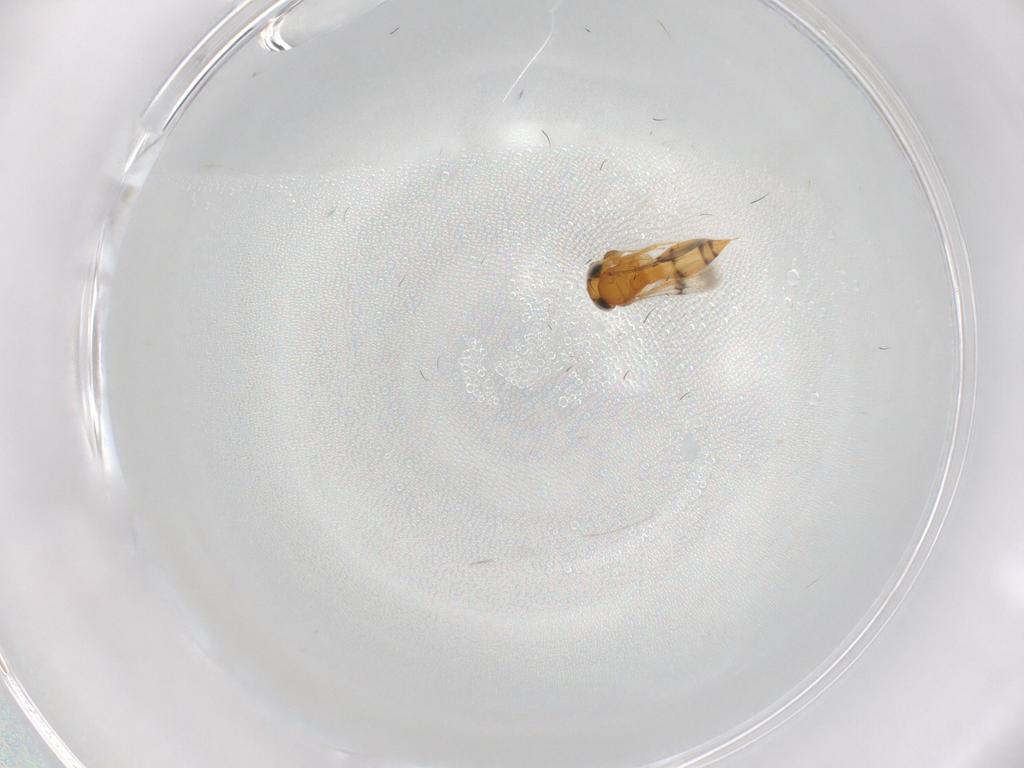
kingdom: Animalia
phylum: Arthropoda
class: Insecta
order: Hymenoptera
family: Scelionidae
